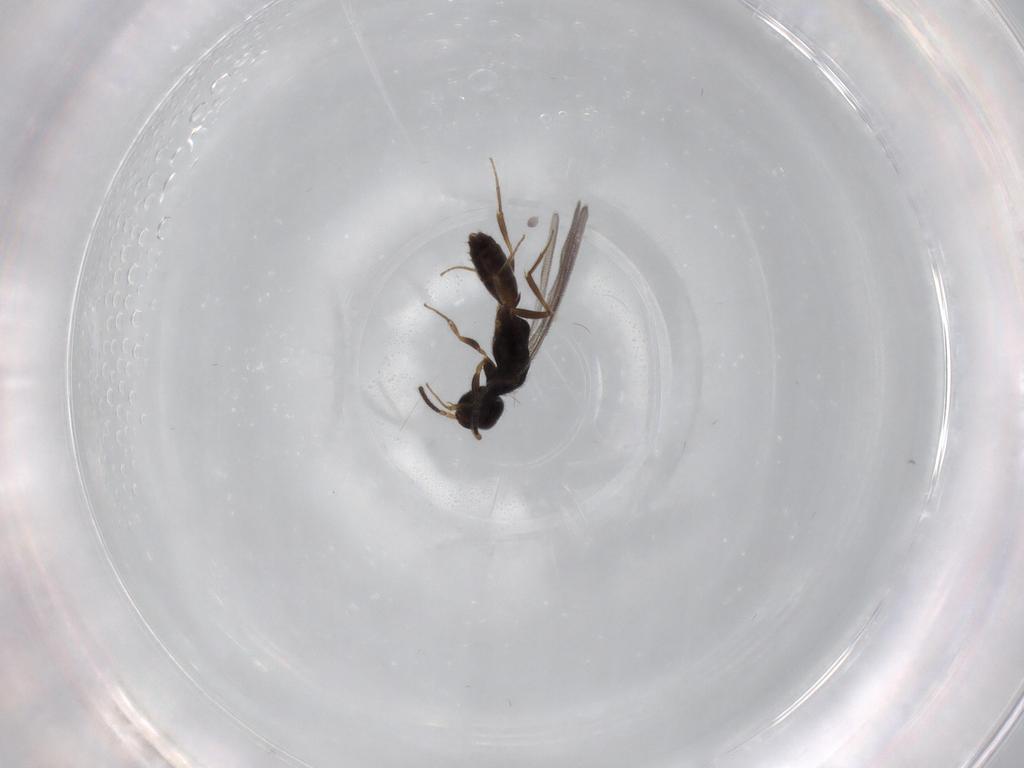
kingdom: Animalia
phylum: Arthropoda
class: Insecta
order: Hymenoptera
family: Bethylidae
